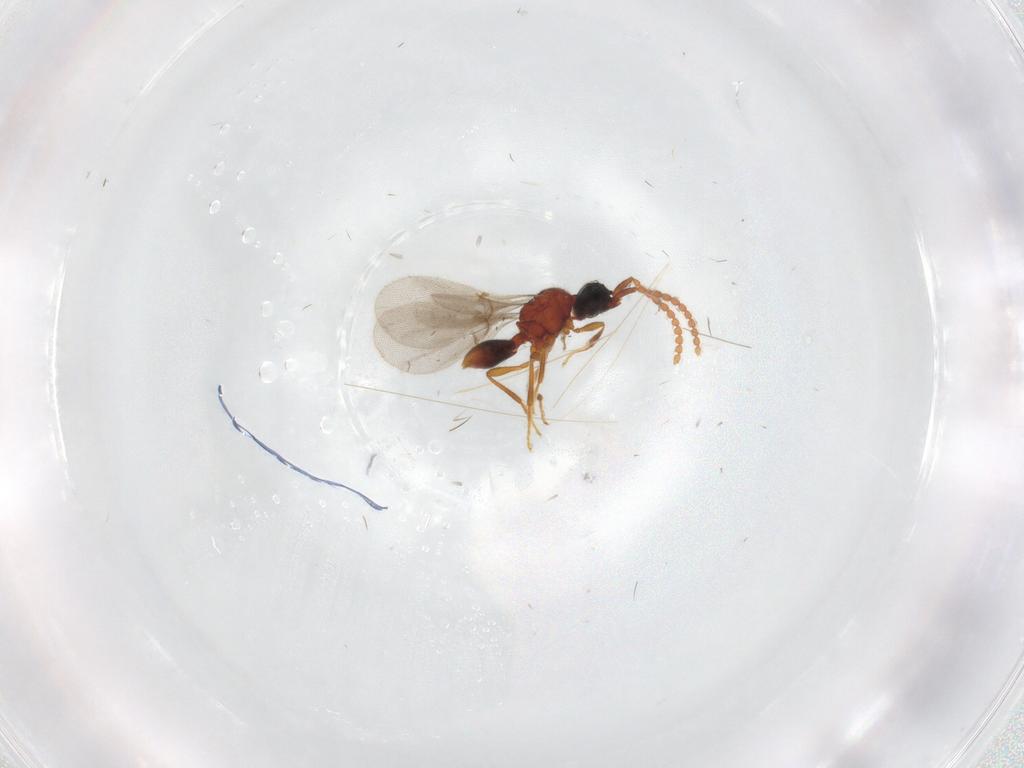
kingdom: Animalia
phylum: Arthropoda
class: Insecta
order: Hymenoptera
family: Diapriidae
